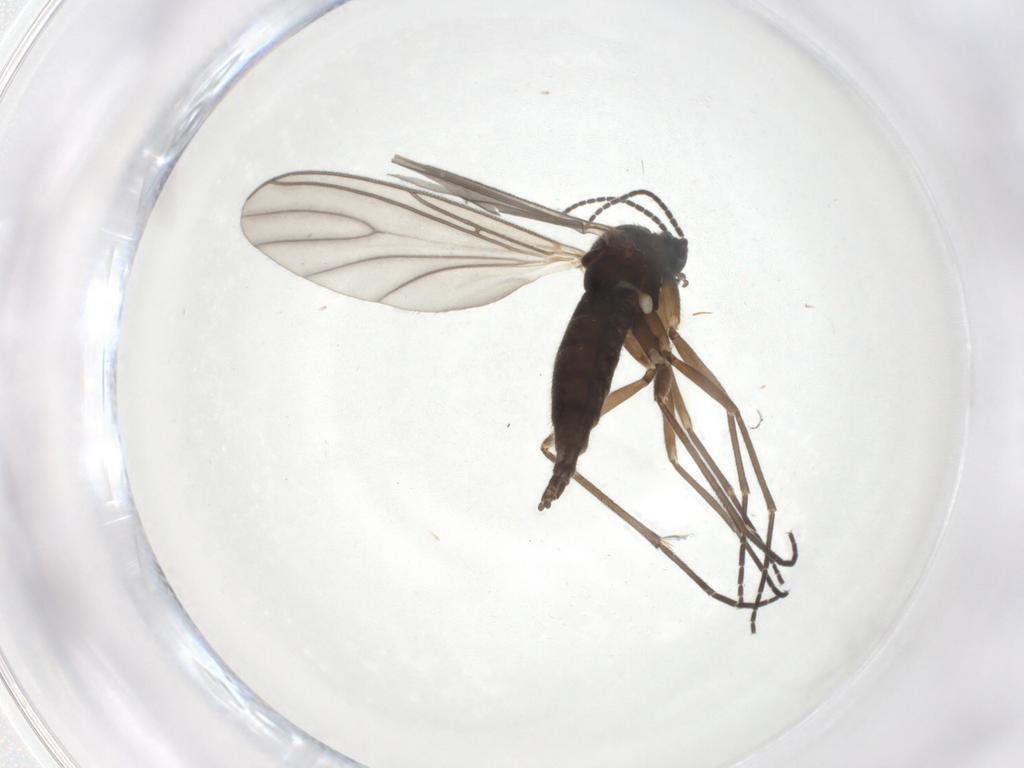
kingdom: Animalia
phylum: Arthropoda
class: Insecta
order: Diptera
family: Sciaridae
